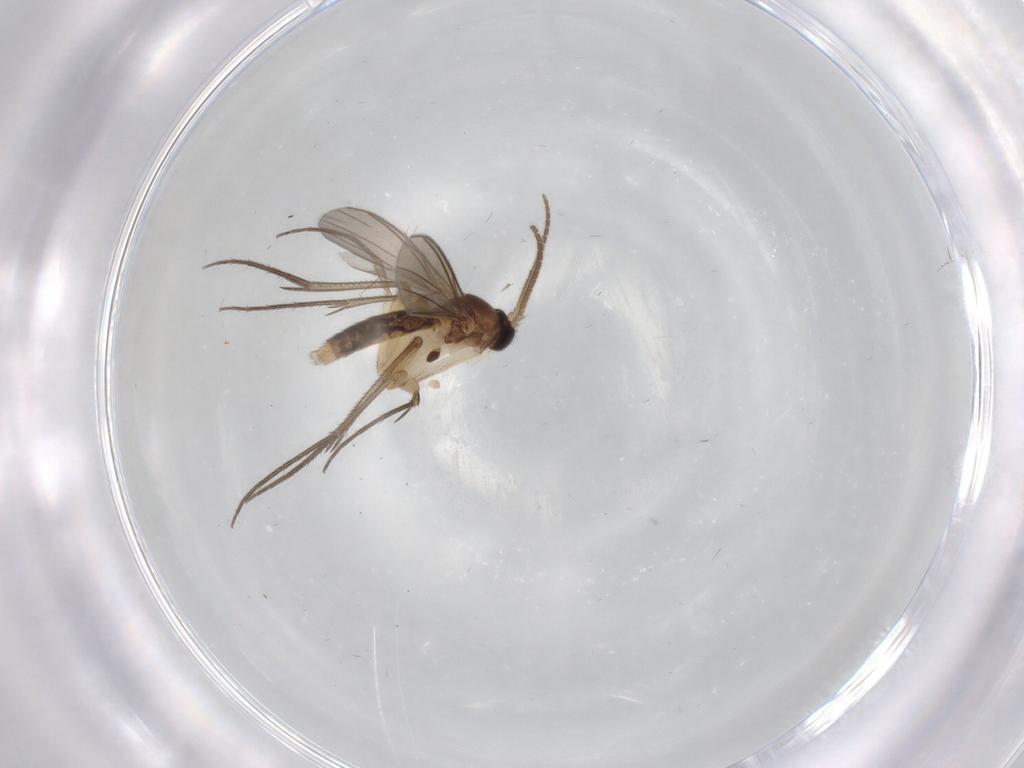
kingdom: Animalia
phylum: Arthropoda
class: Insecta
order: Diptera
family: Mycetophilidae
